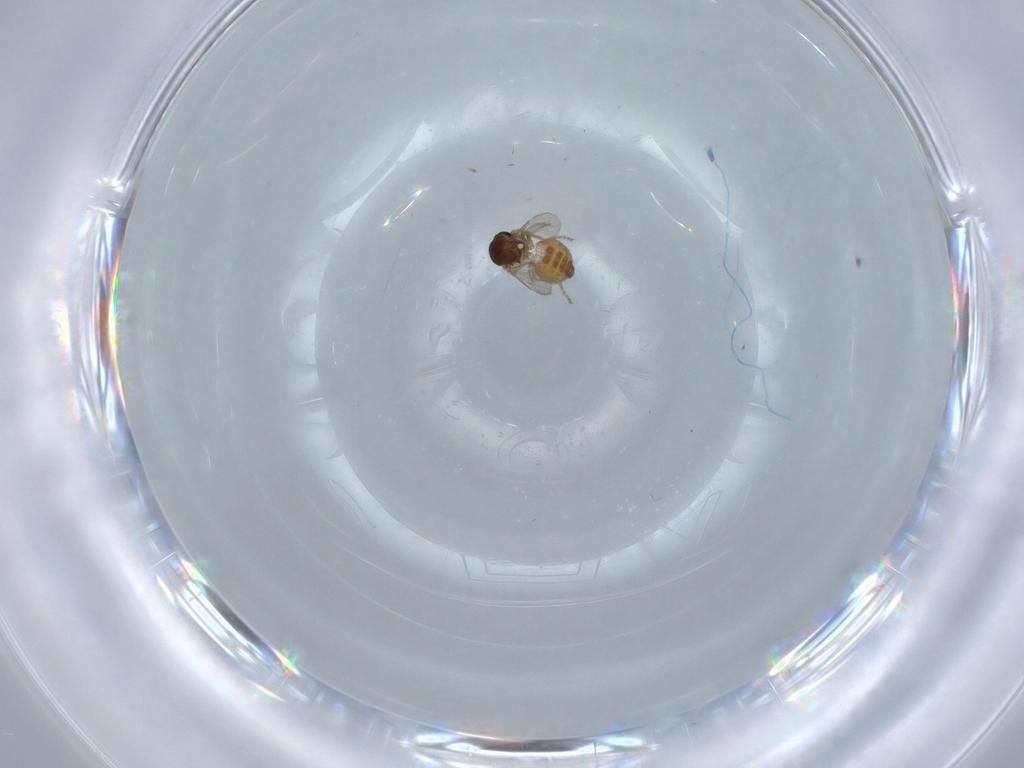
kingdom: Animalia
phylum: Arthropoda
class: Insecta
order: Diptera
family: Ceratopogonidae
